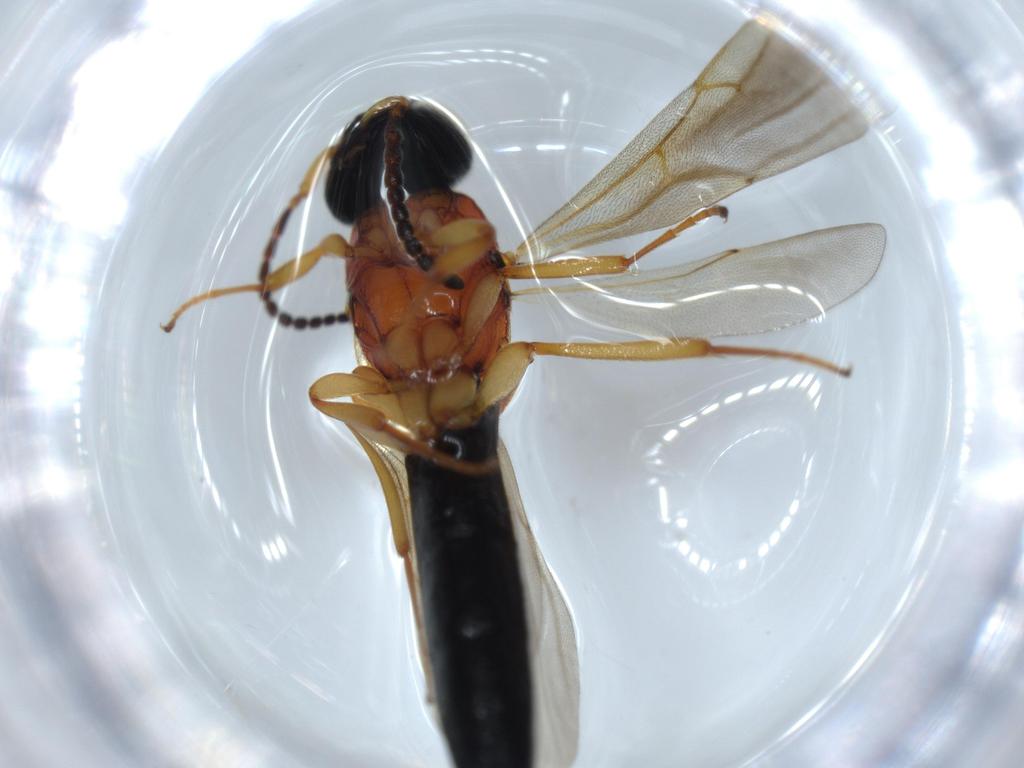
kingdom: Animalia
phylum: Arthropoda
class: Insecta
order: Hymenoptera
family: Scelionidae
